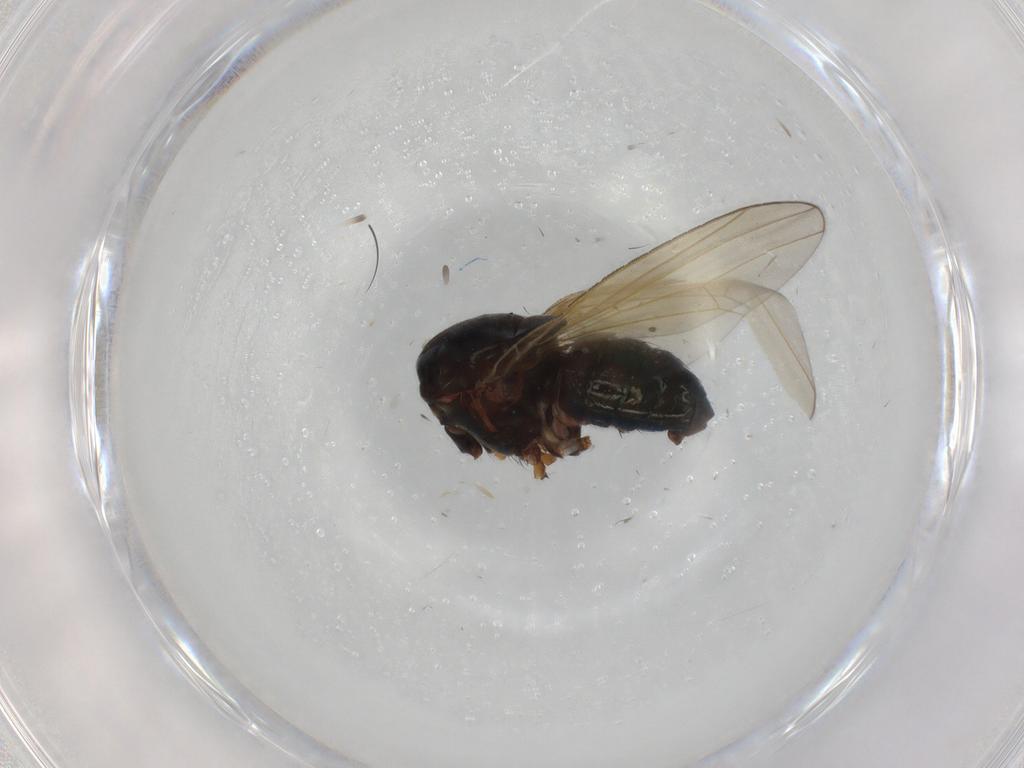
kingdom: Animalia
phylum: Arthropoda
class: Insecta
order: Diptera
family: Lauxaniidae
